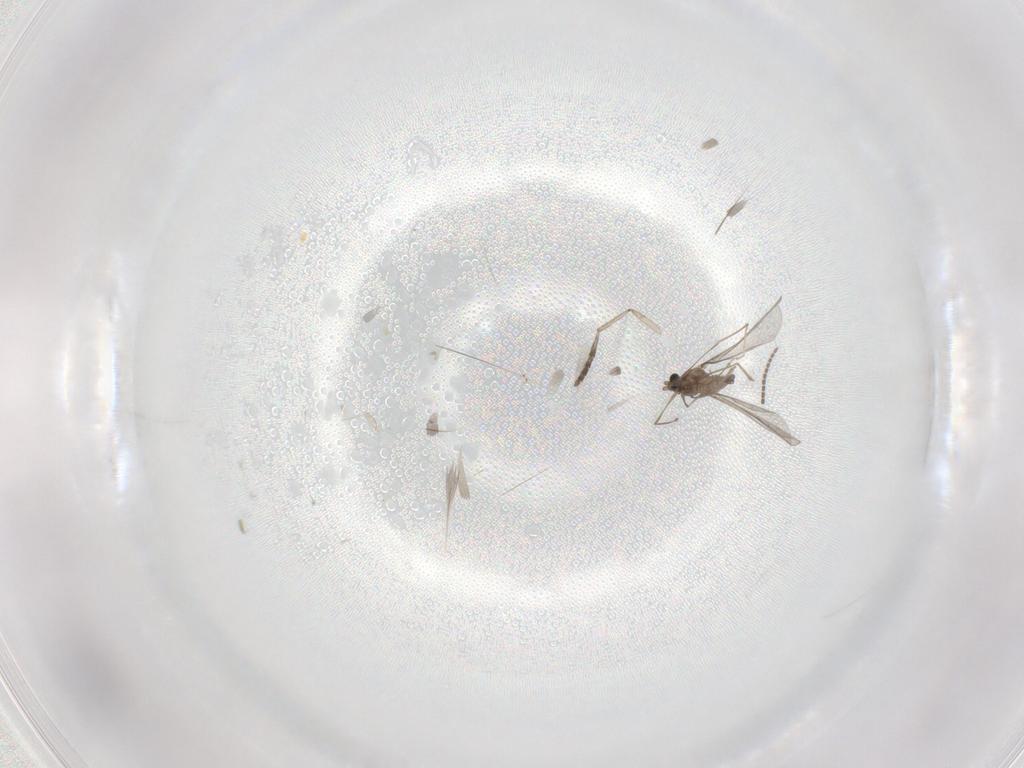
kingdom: Animalia
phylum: Arthropoda
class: Insecta
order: Diptera
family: Cecidomyiidae
